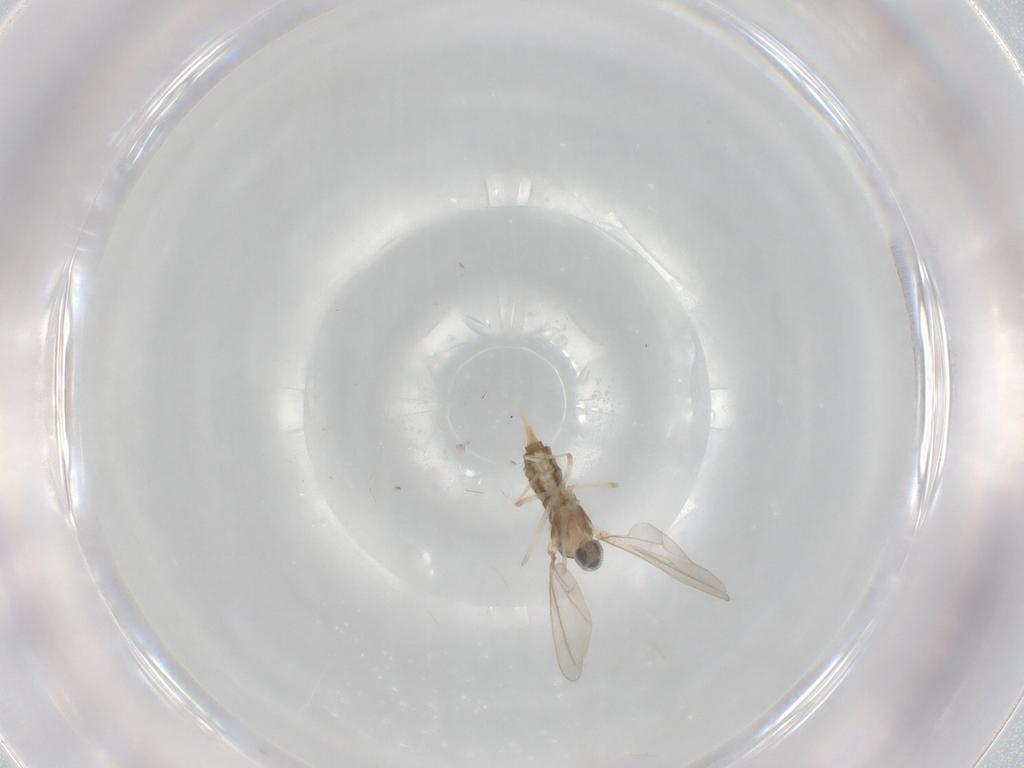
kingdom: Animalia
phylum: Arthropoda
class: Insecta
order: Diptera
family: Cecidomyiidae
